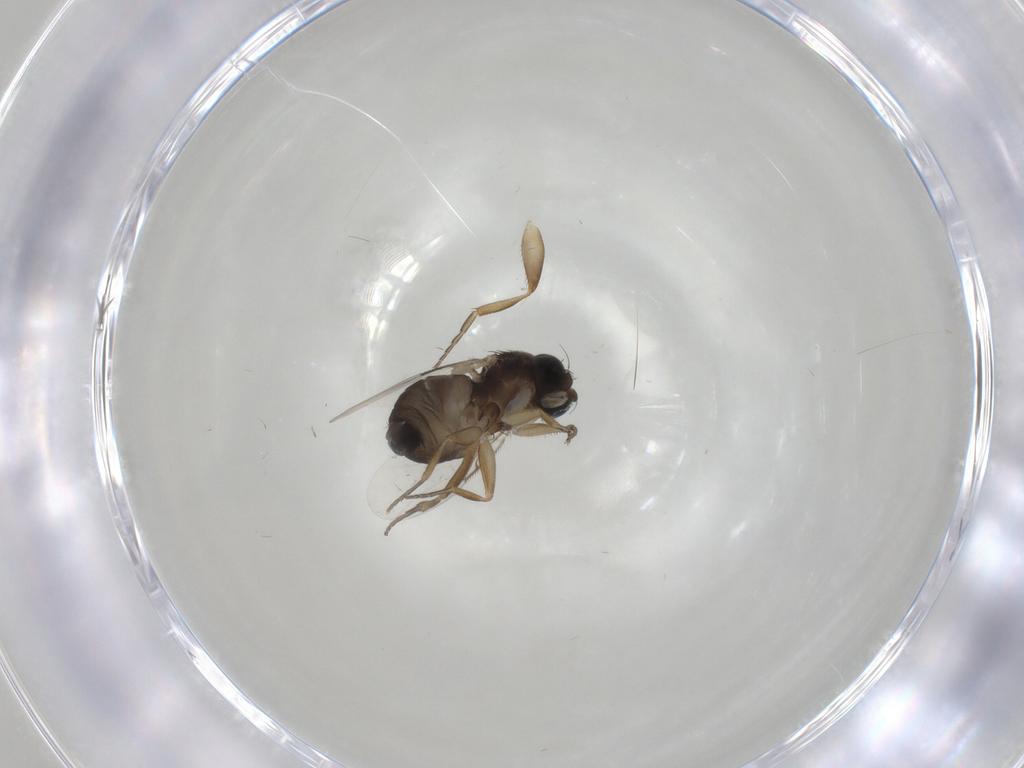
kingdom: Animalia
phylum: Arthropoda
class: Insecta
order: Diptera
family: Phoridae
